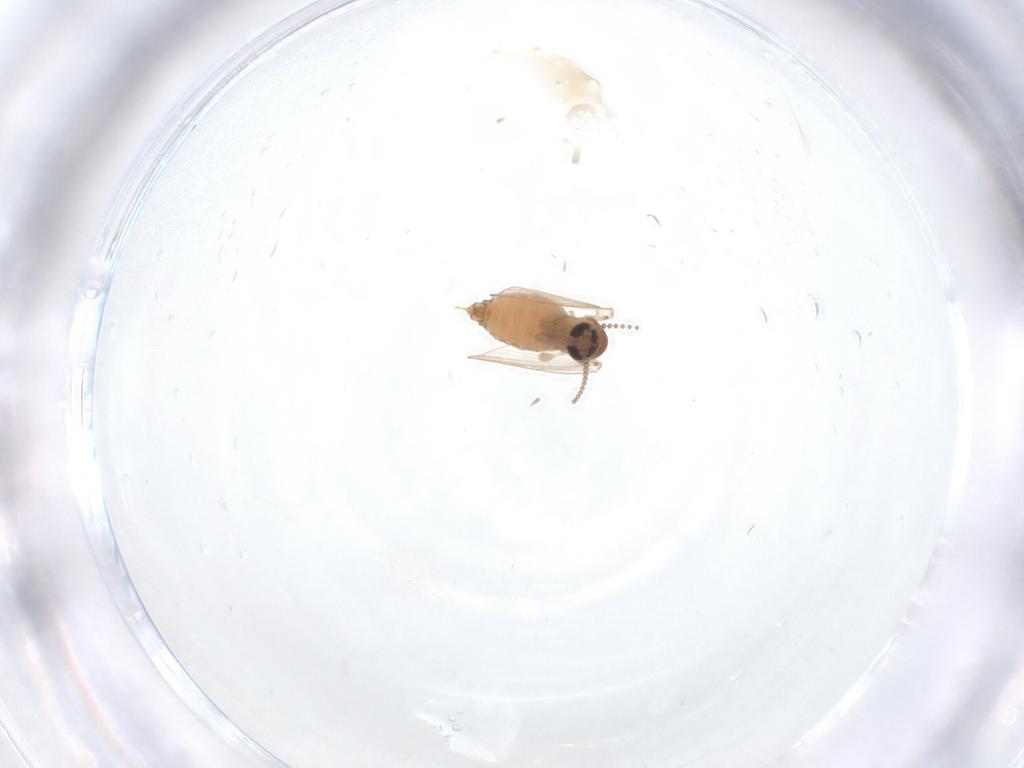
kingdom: Animalia
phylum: Arthropoda
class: Insecta
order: Diptera
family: Psychodidae
